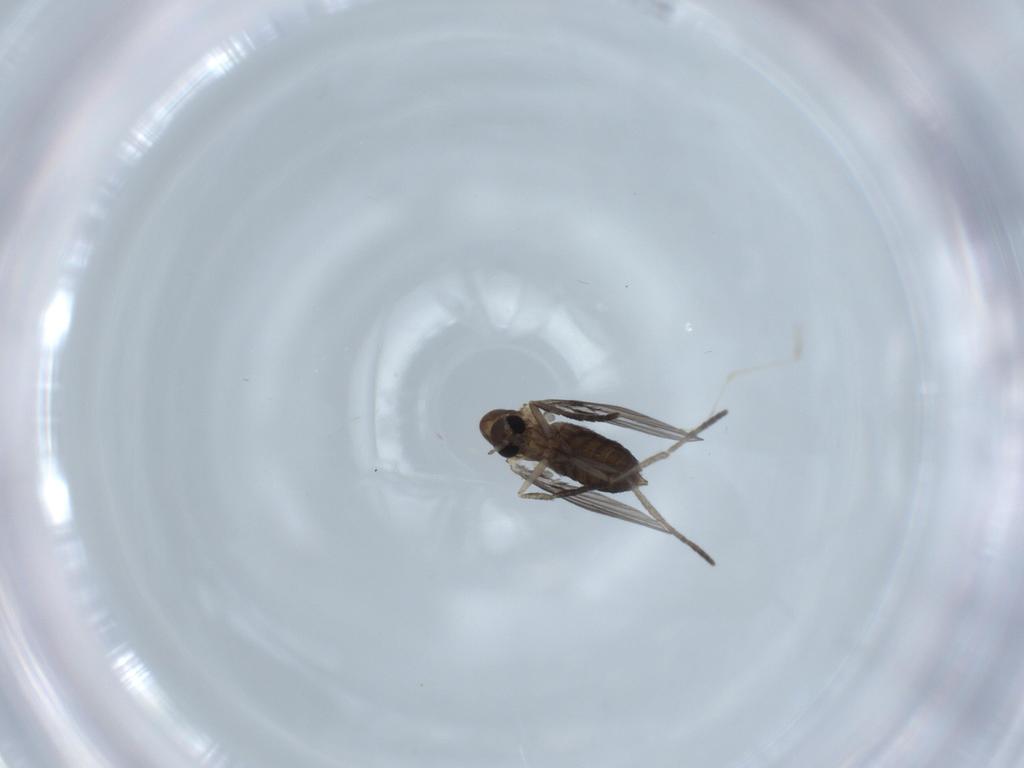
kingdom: Animalia
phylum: Arthropoda
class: Insecta
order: Diptera
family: Cecidomyiidae
